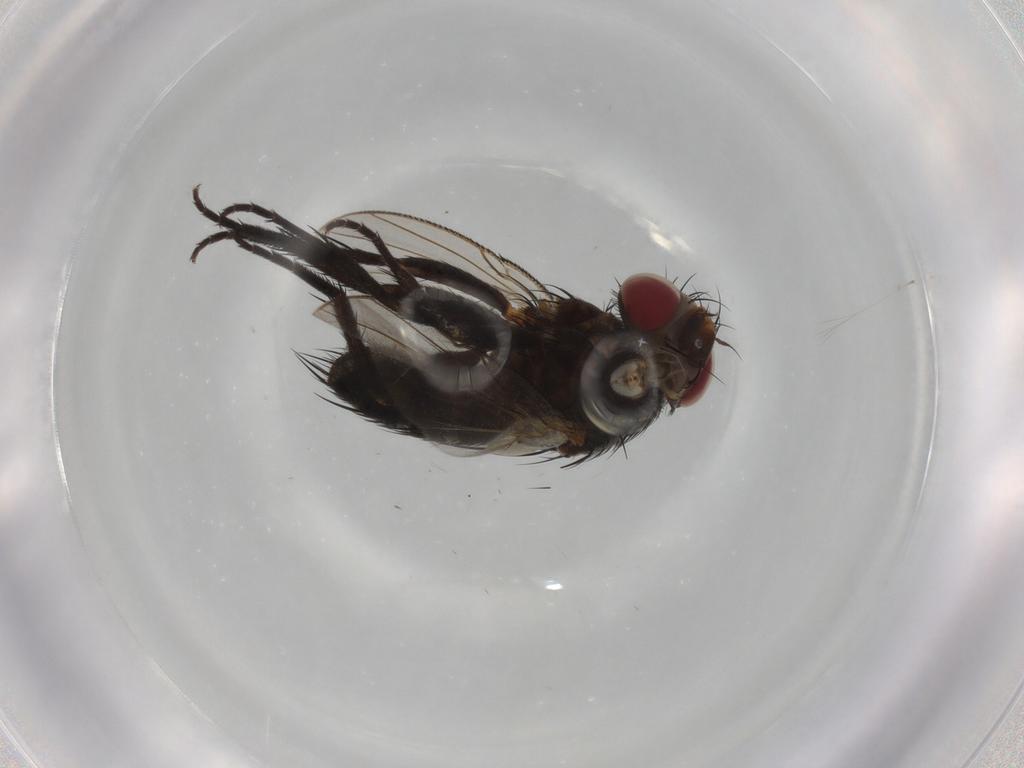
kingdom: Animalia
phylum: Arthropoda
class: Insecta
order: Diptera
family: Tachinidae
